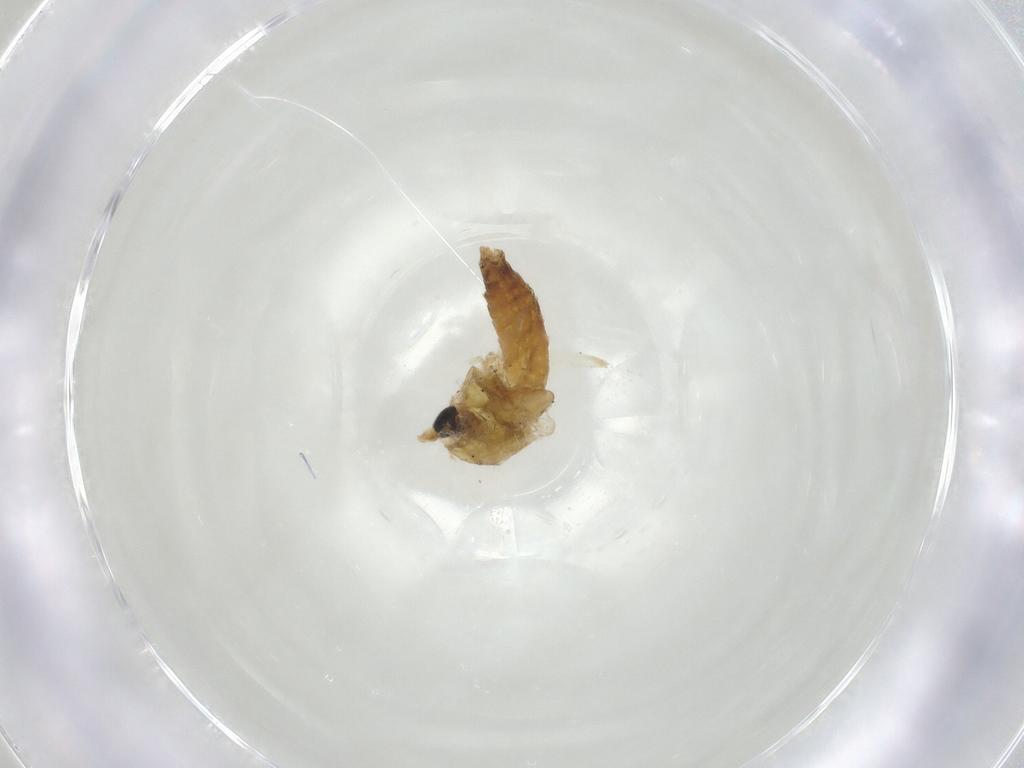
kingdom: Animalia
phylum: Arthropoda
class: Insecta
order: Diptera
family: Chironomidae
